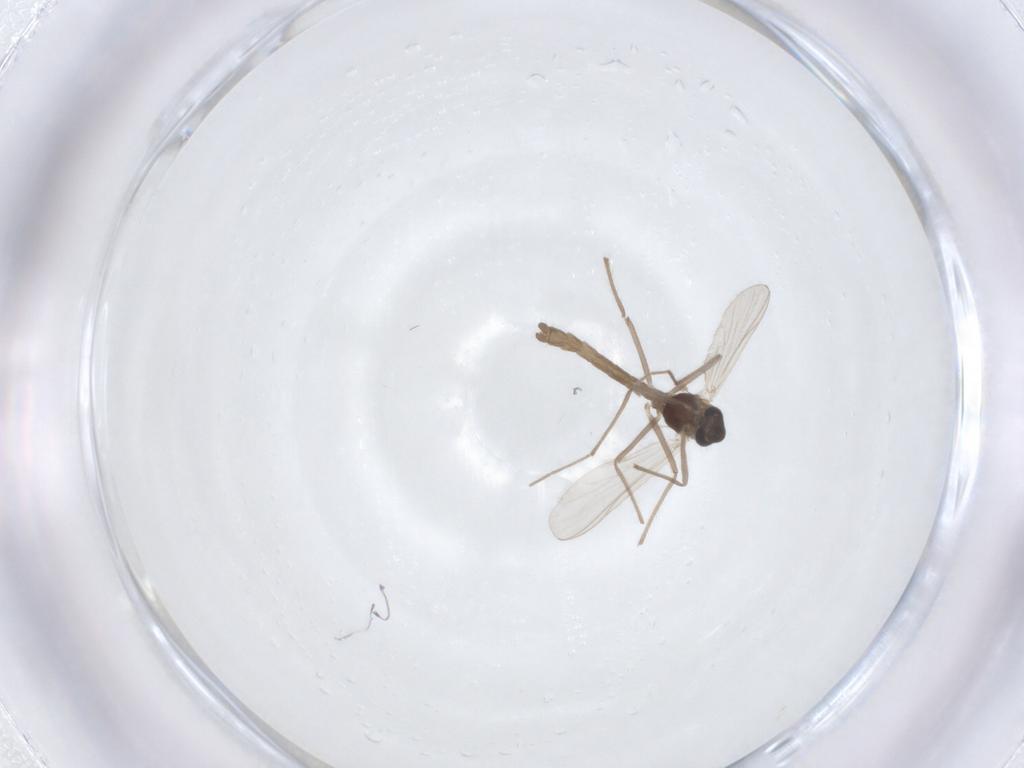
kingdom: Animalia
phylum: Arthropoda
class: Insecta
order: Diptera
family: Chironomidae
